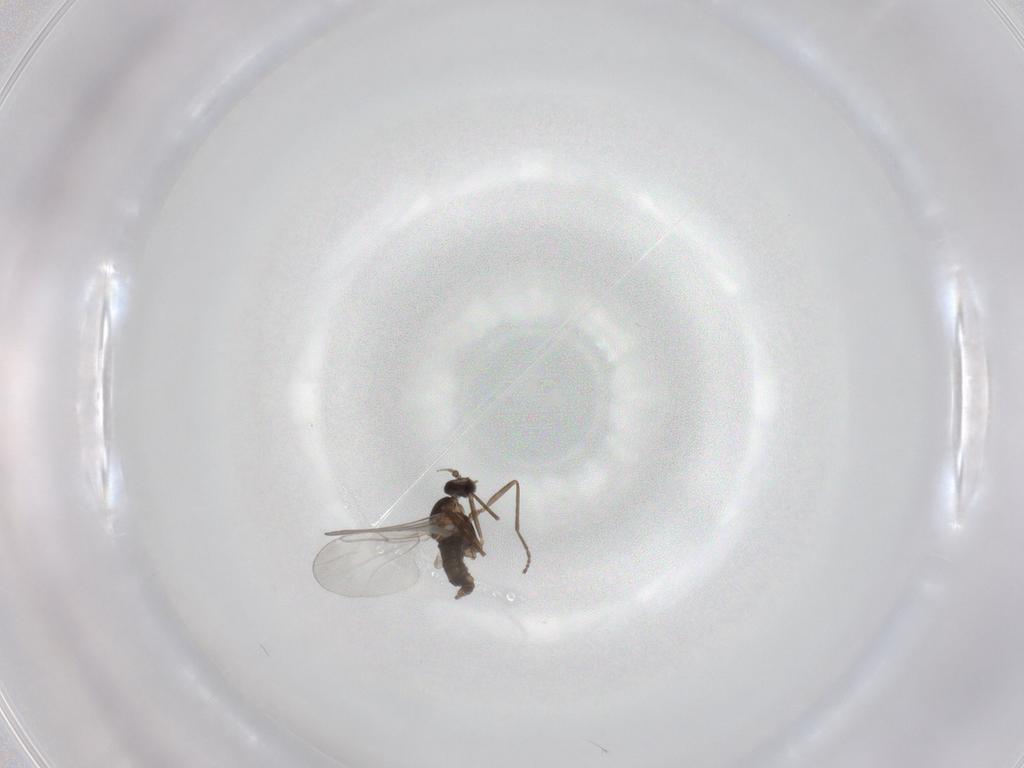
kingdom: Animalia
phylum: Arthropoda
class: Insecta
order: Diptera
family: Cecidomyiidae
